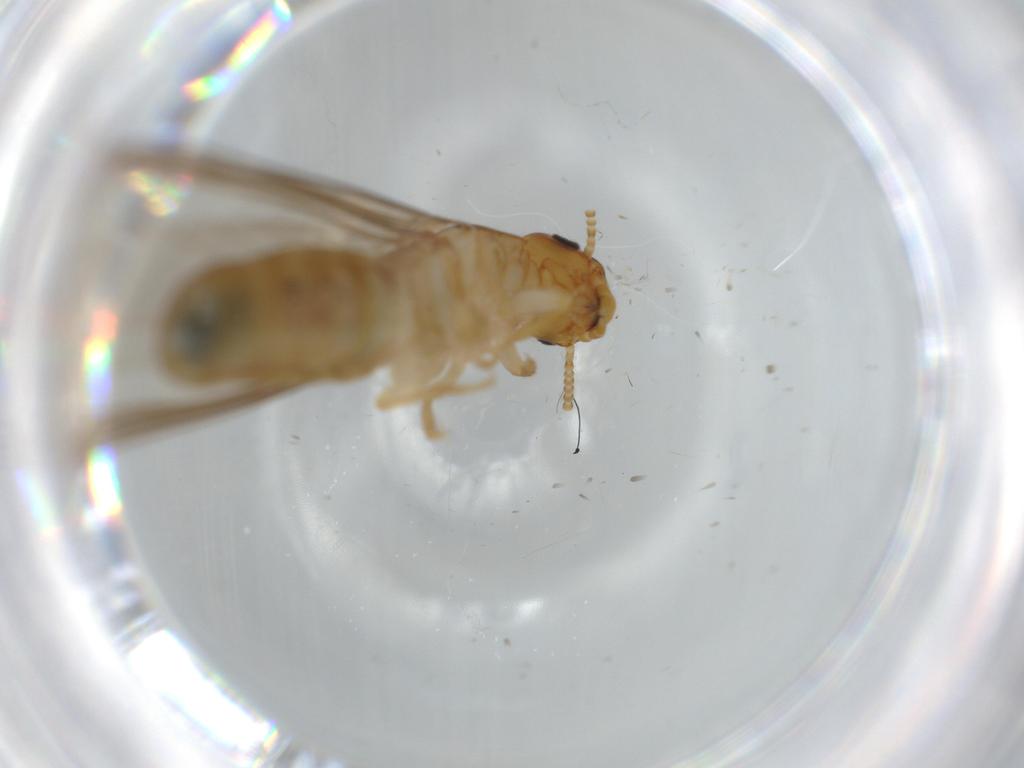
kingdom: Animalia
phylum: Arthropoda
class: Insecta
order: Blattodea
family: Kalotermitidae
